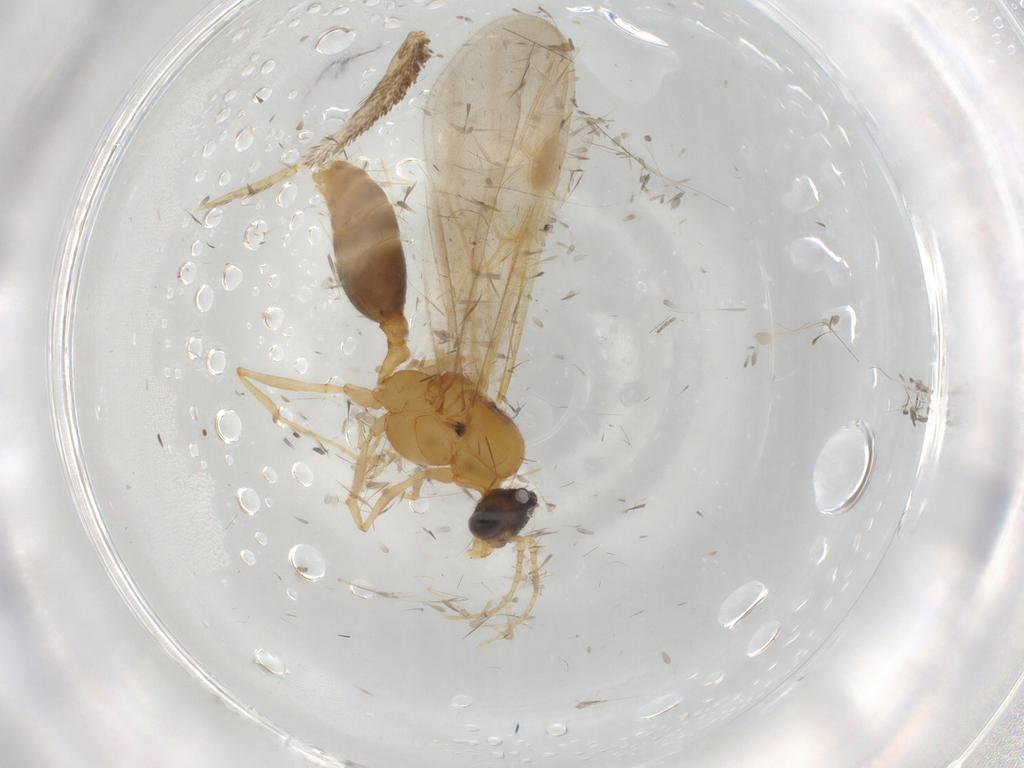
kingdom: Animalia
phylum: Arthropoda
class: Insecta
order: Hymenoptera
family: Formicidae
